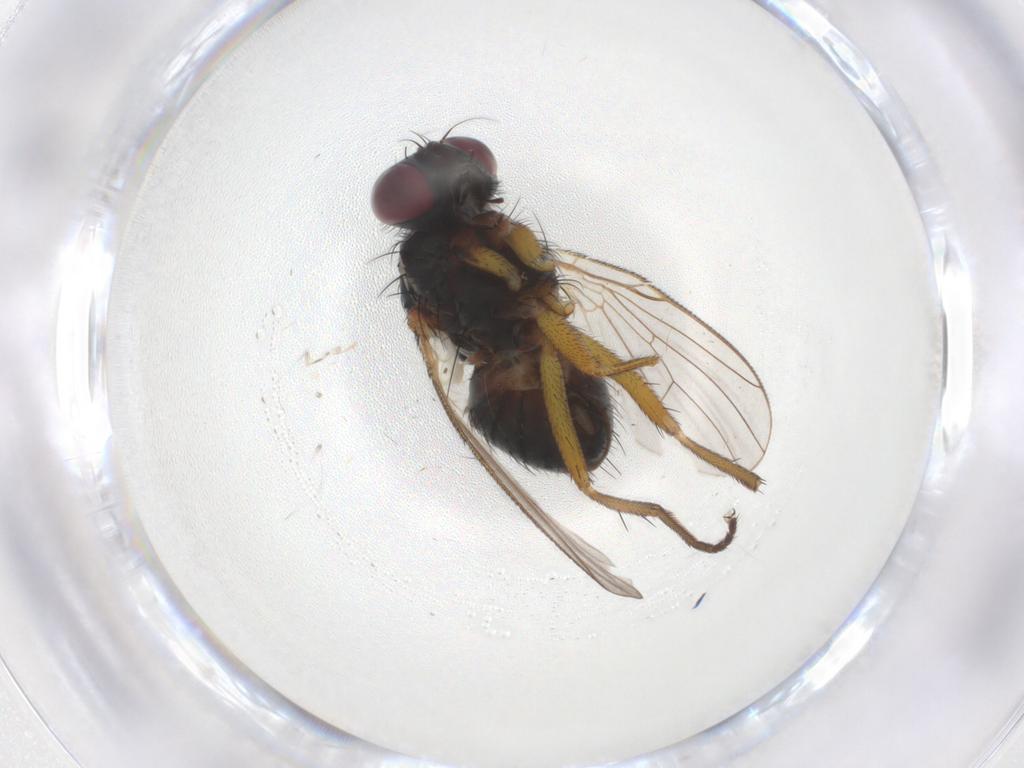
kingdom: Animalia
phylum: Arthropoda
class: Insecta
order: Diptera
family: Muscidae
